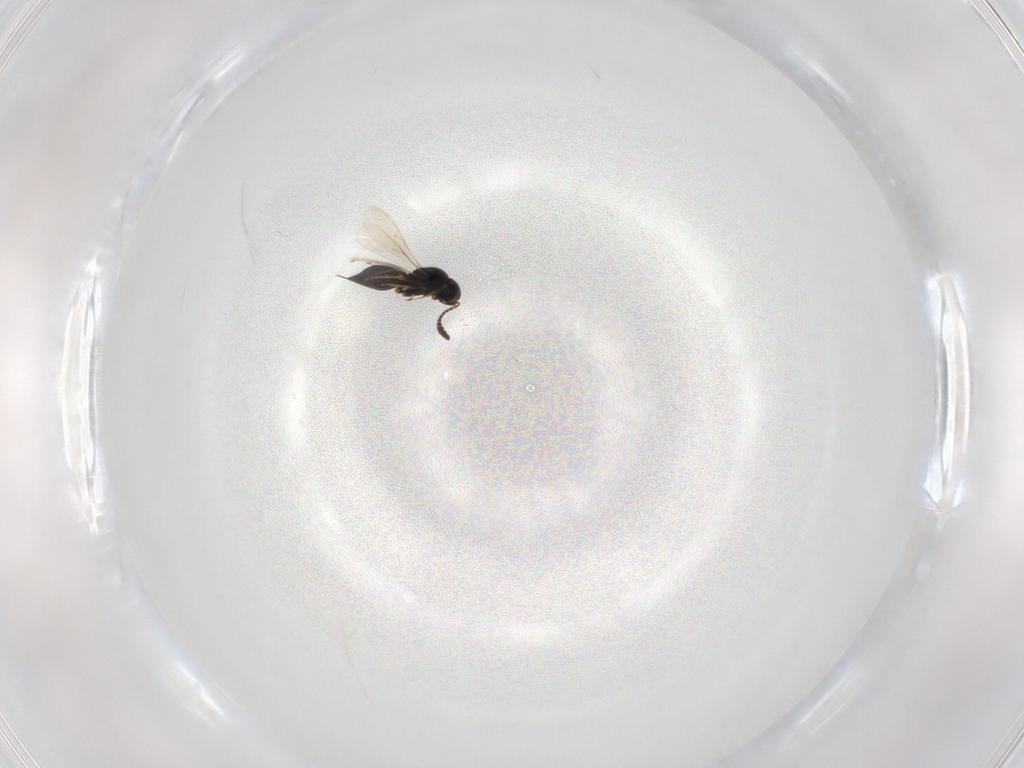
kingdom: Animalia
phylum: Arthropoda
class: Insecta
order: Hymenoptera
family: Scelionidae
